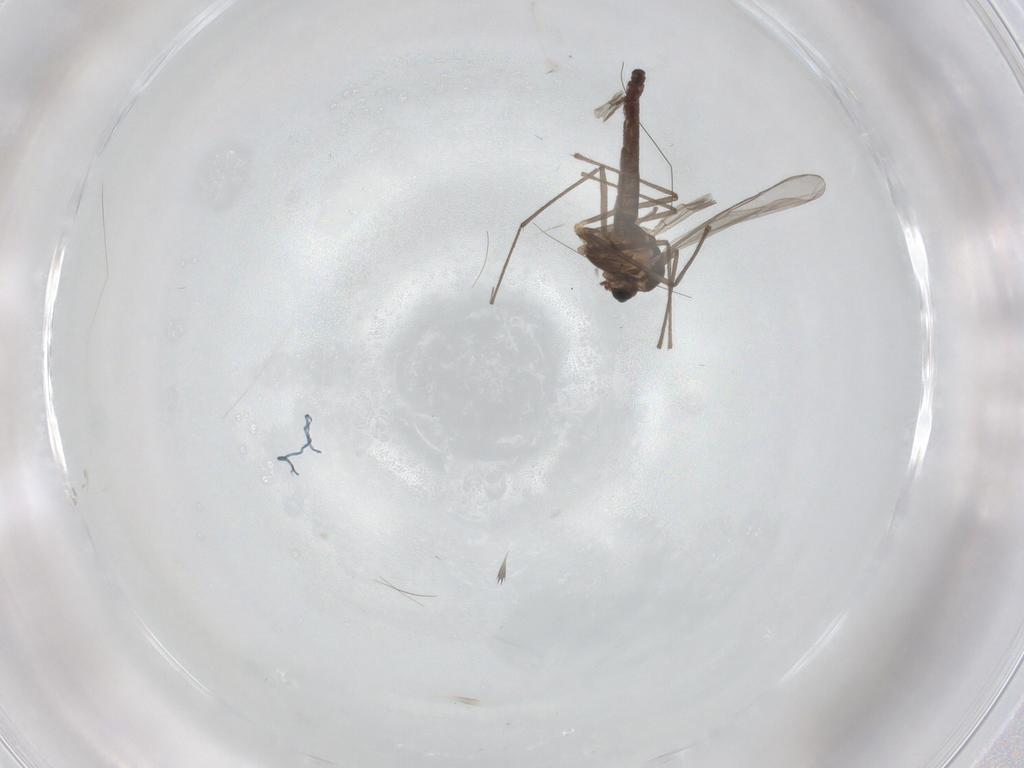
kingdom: Animalia
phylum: Arthropoda
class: Insecta
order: Diptera
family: Chironomidae
